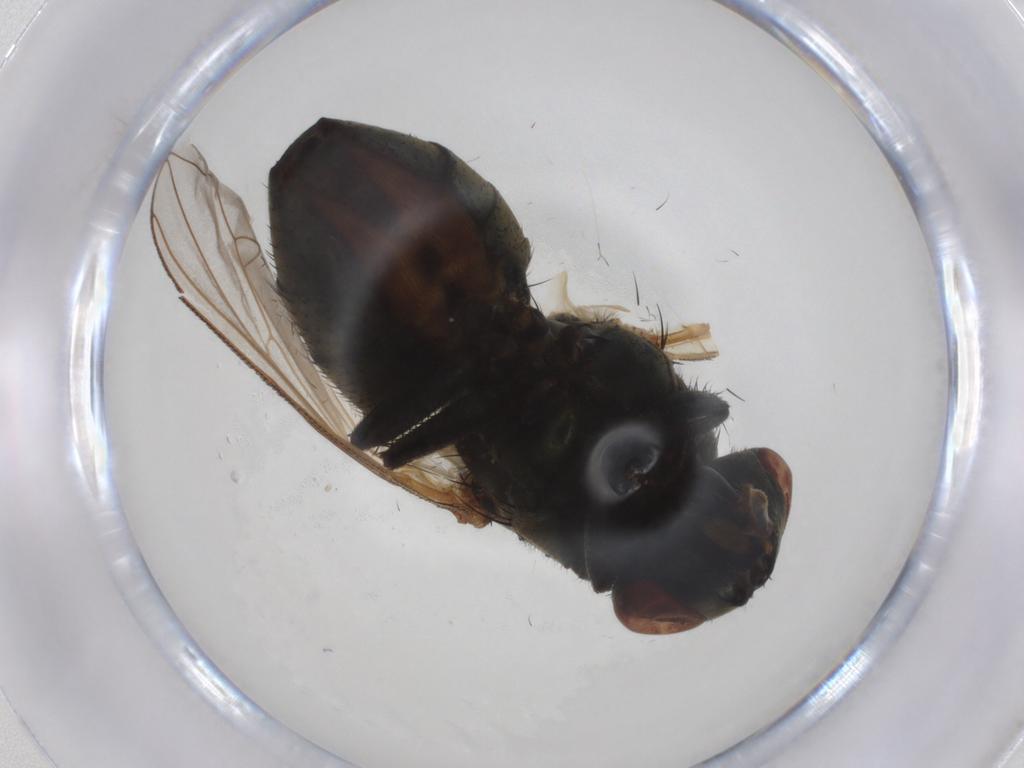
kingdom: Animalia
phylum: Arthropoda
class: Insecta
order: Diptera
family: Muscidae
